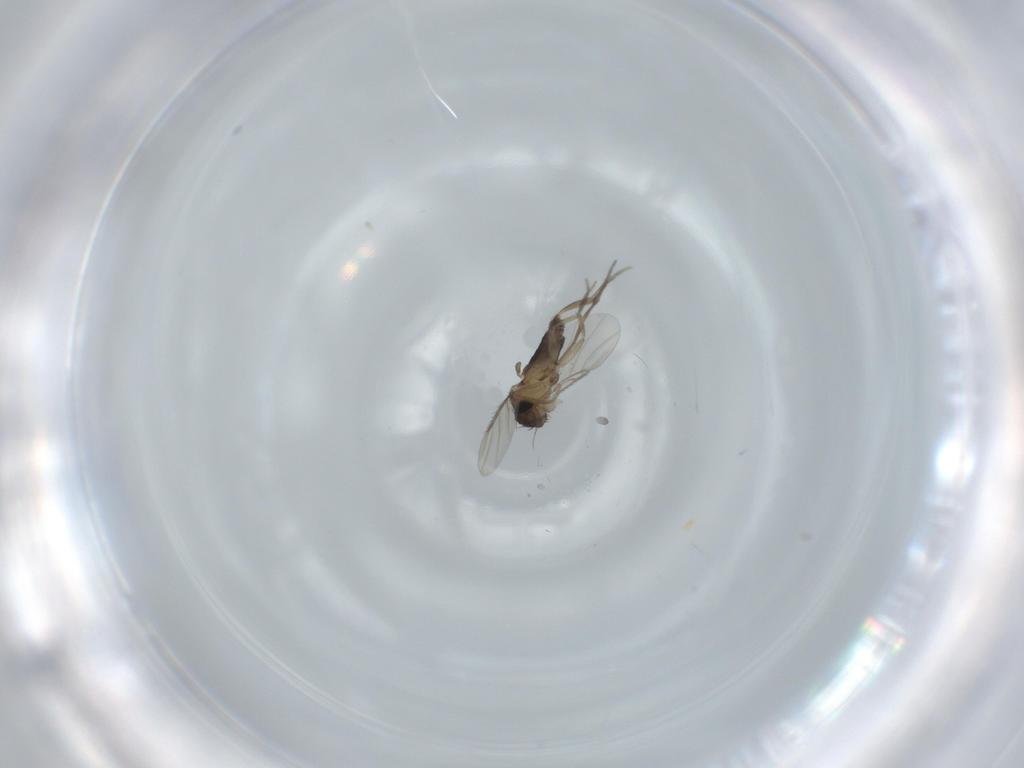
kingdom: Animalia
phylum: Arthropoda
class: Insecta
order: Diptera
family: Phoridae
